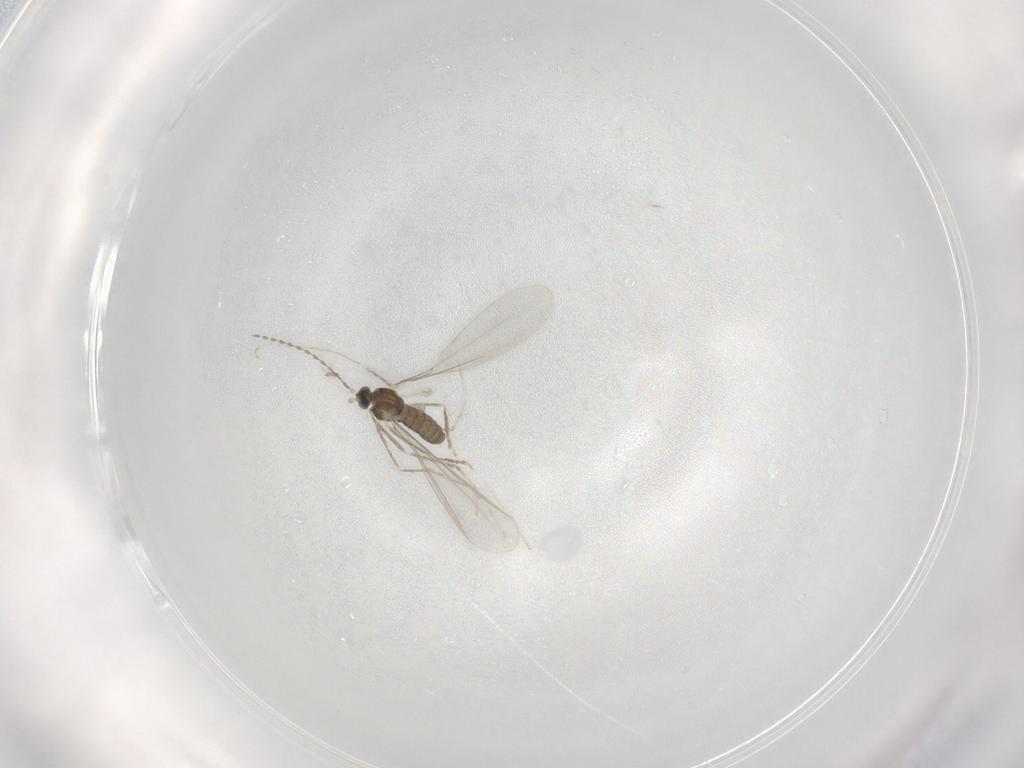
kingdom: Animalia
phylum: Arthropoda
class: Insecta
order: Diptera
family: Cecidomyiidae
